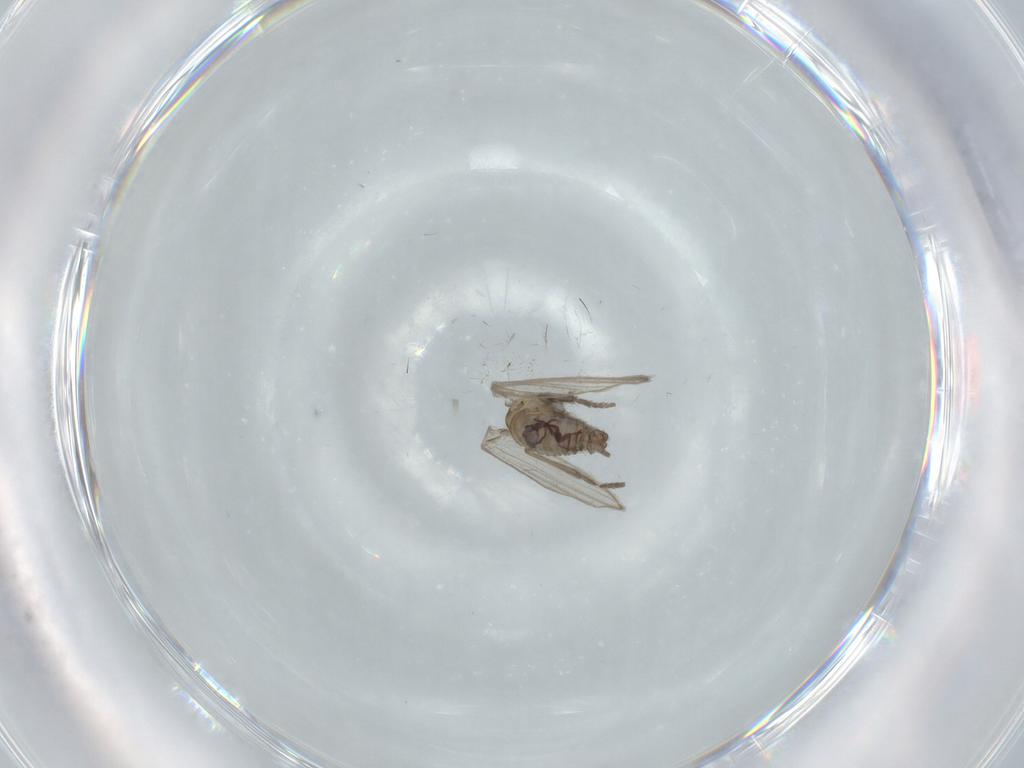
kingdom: Animalia
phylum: Arthropoda
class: Insecta
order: Diptera
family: Psychodidae
